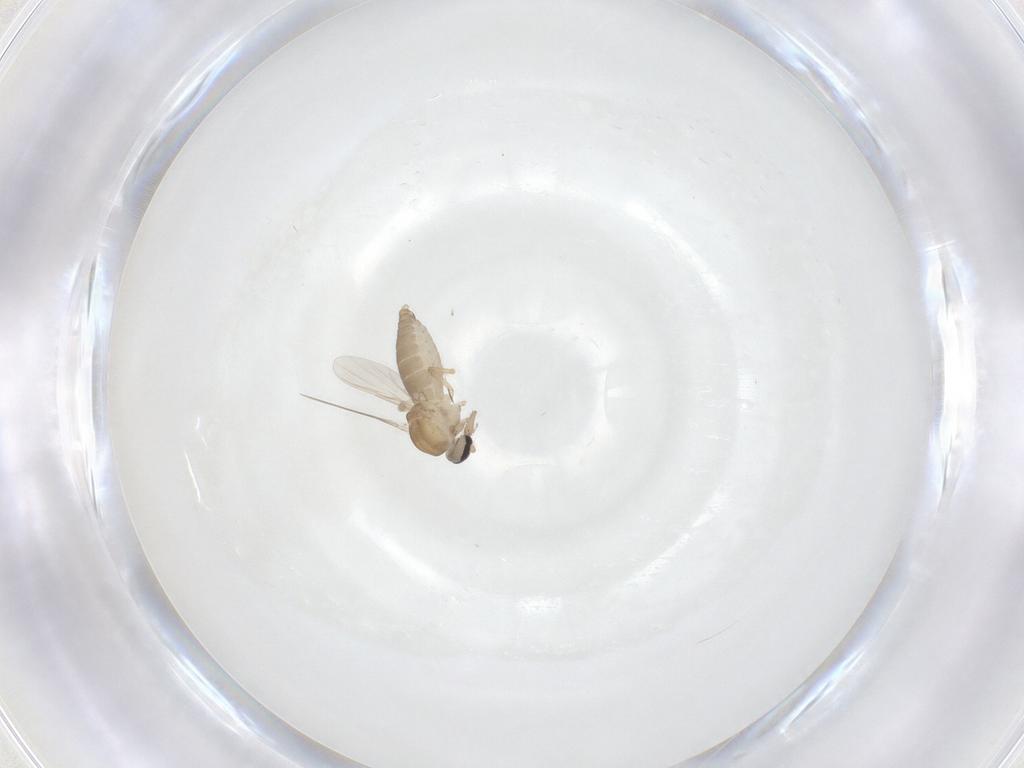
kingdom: Animalia
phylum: Arthropoda
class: Insecta
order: Diptera
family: Ceratopogonidae
